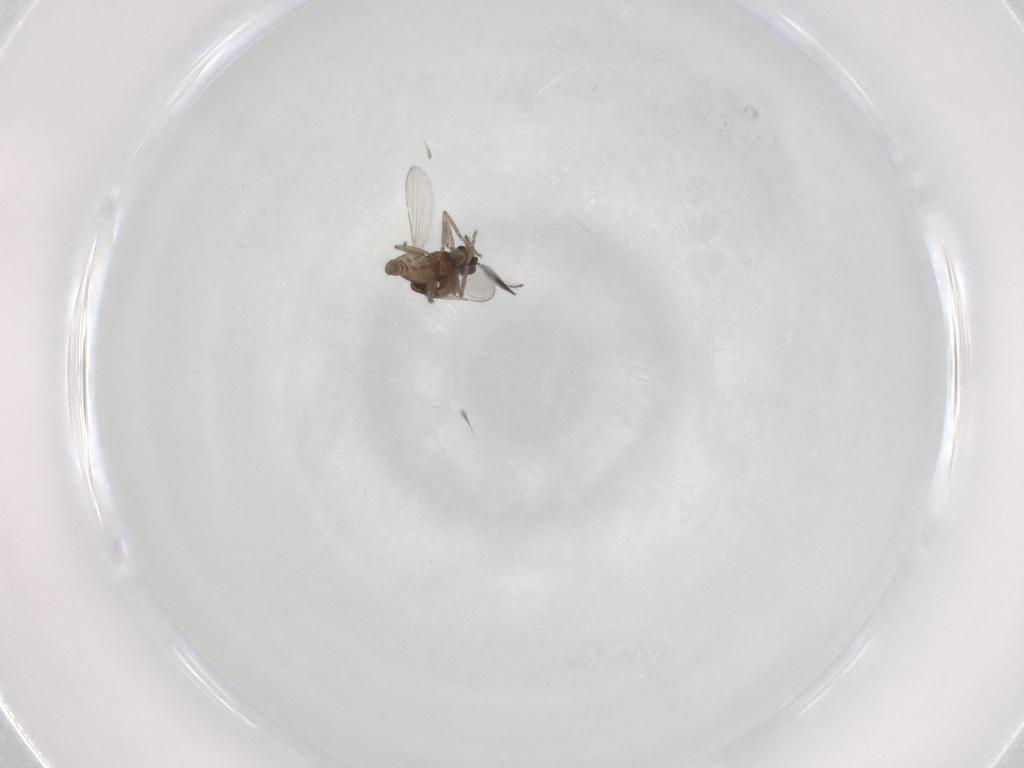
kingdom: Animalia
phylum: Arthropoda
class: Insecta
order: Diptera
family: Ceratopogonidae
